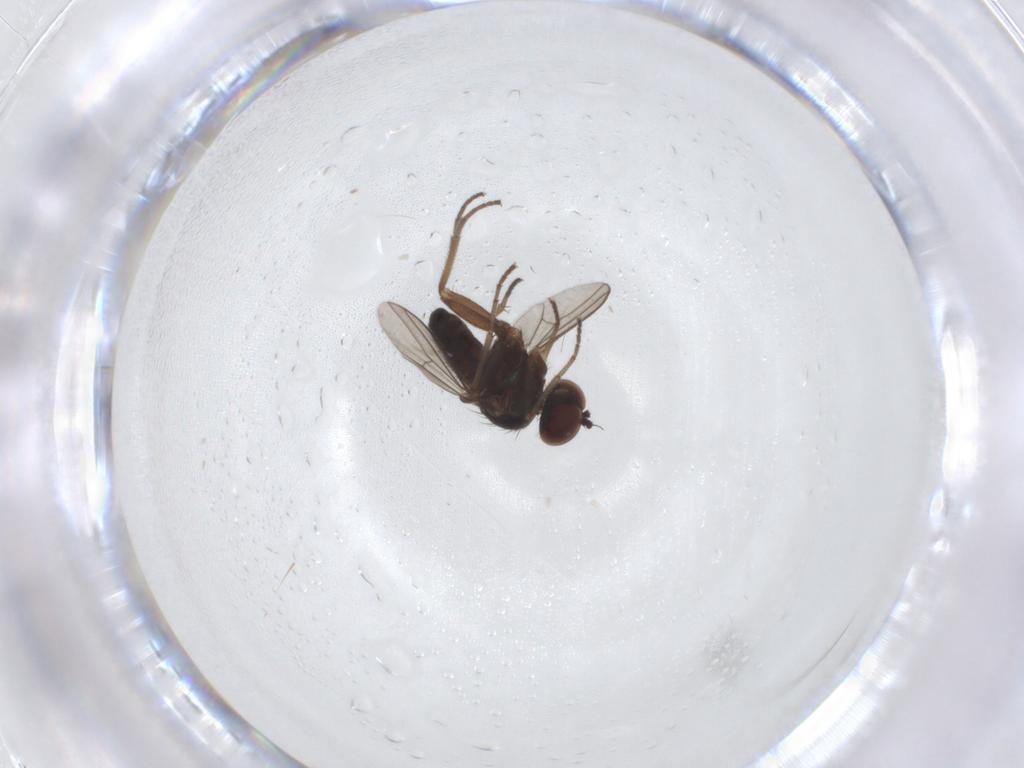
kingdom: Animalia
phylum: Arthropoda
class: Insecta
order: Diptera
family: Dolichopodidae
